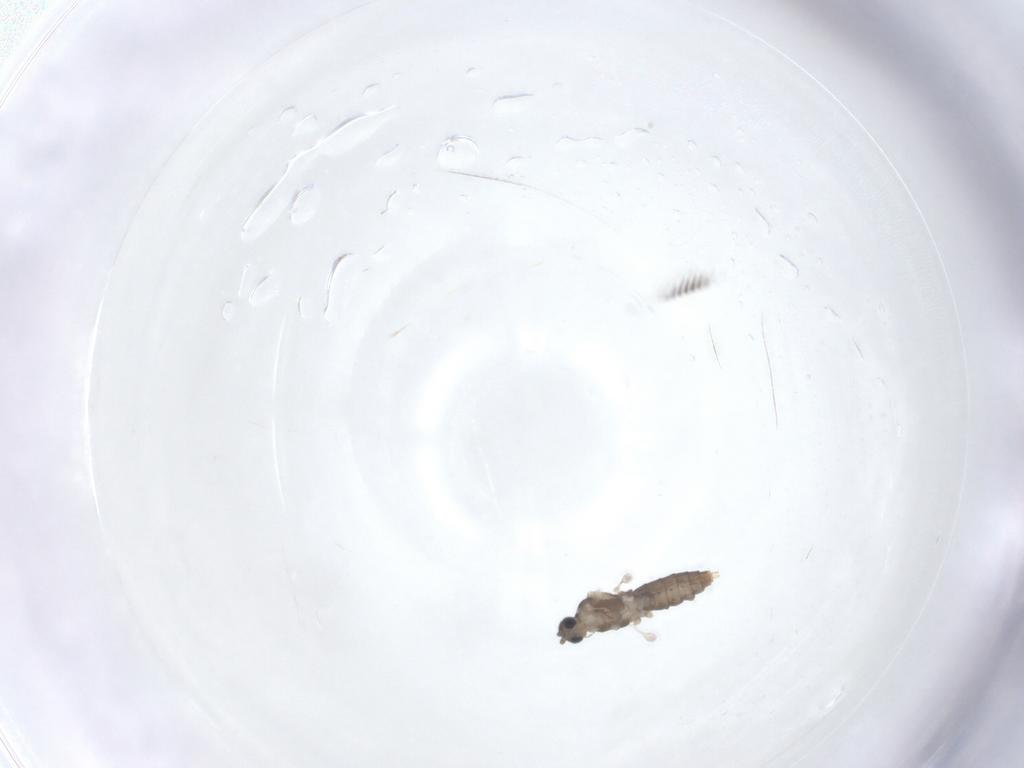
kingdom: Animalia
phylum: Arthropoda
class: Insecta
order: Diptera
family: Cecidomyiidae
